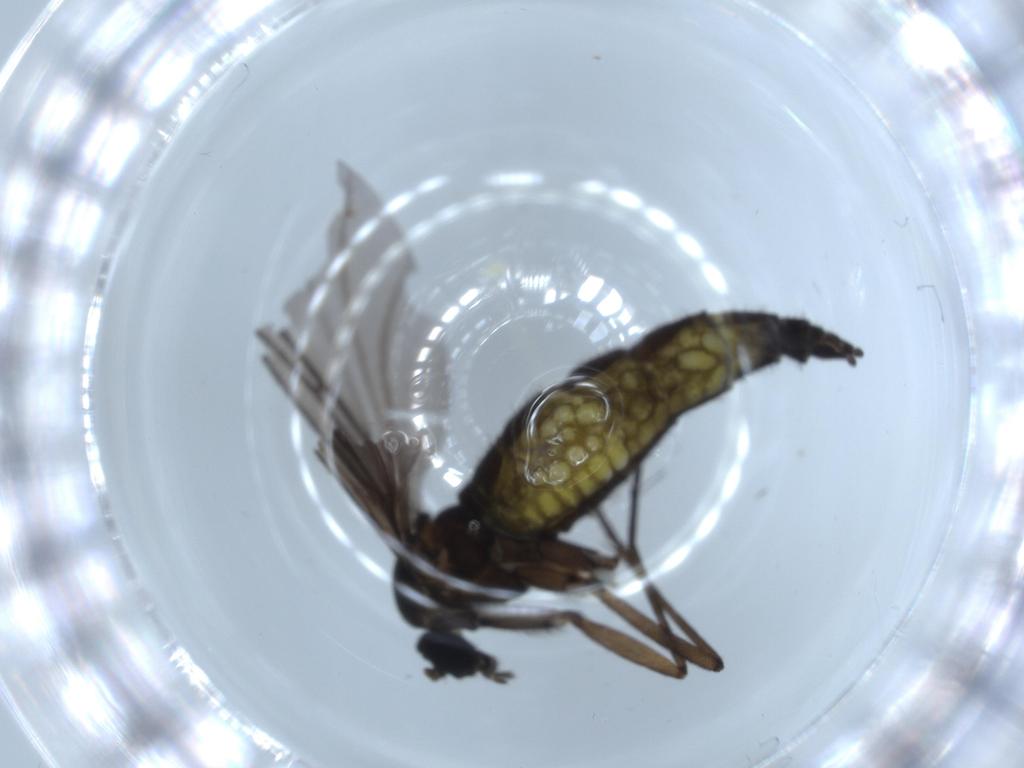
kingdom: Animalia
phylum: Arthropoda
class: Insecta
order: Diptera
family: Sciaridae
